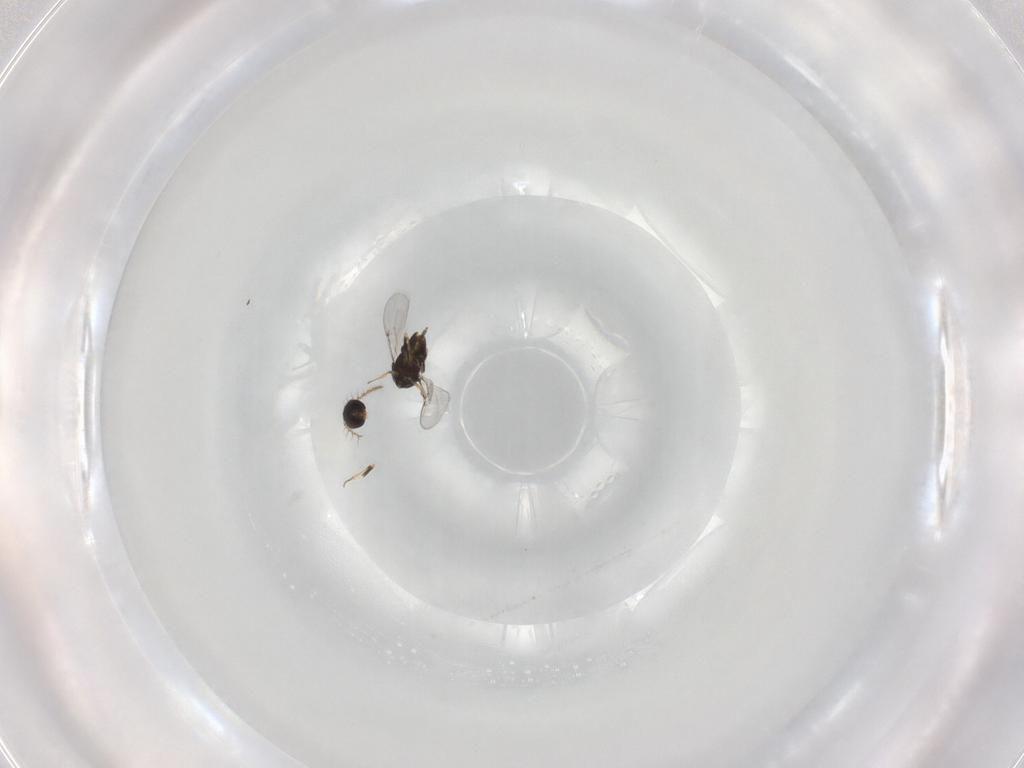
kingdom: Animalia
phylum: Arthropoda
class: Insecta
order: Hymenoptera
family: Encyrtidae
